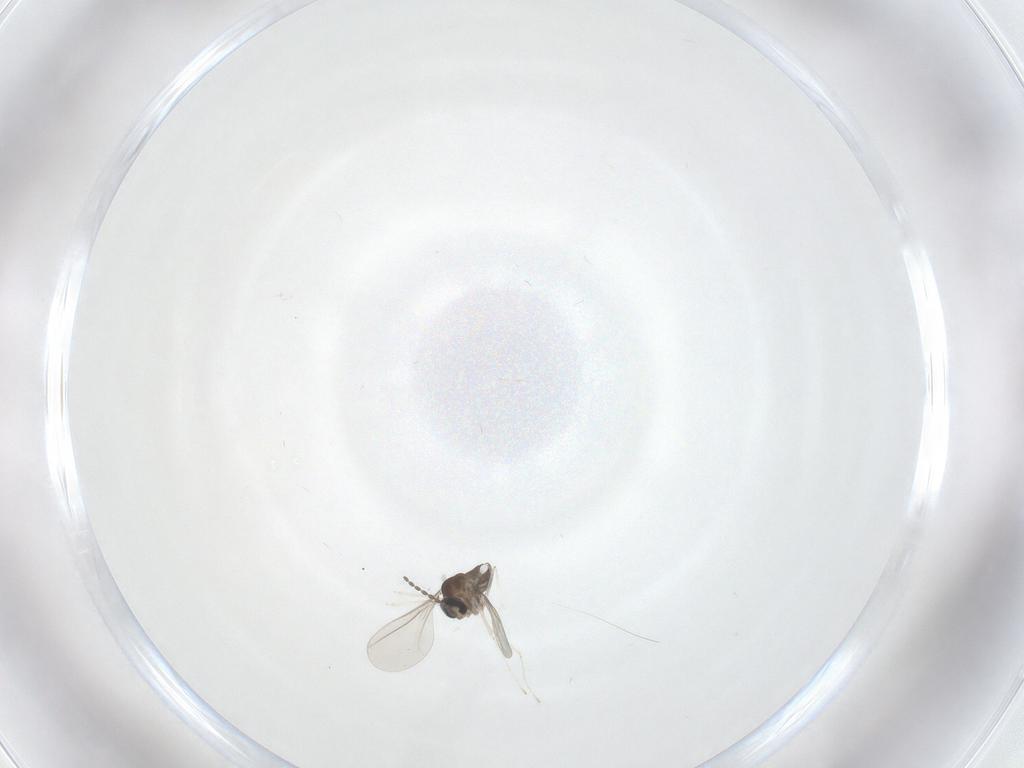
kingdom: Animalia
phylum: Arthropoda
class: Insecta
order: Diptera
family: Cecidomyiidae
